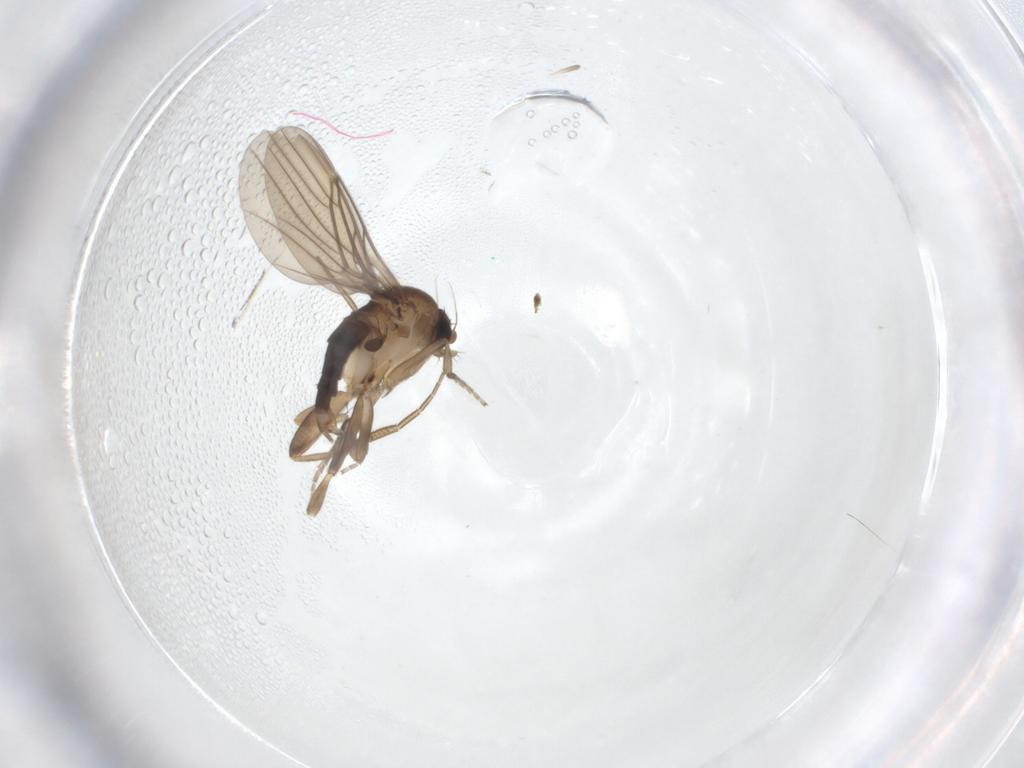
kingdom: Animalia
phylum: Arthropoda
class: Insecta
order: Diptera
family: Phoridae
